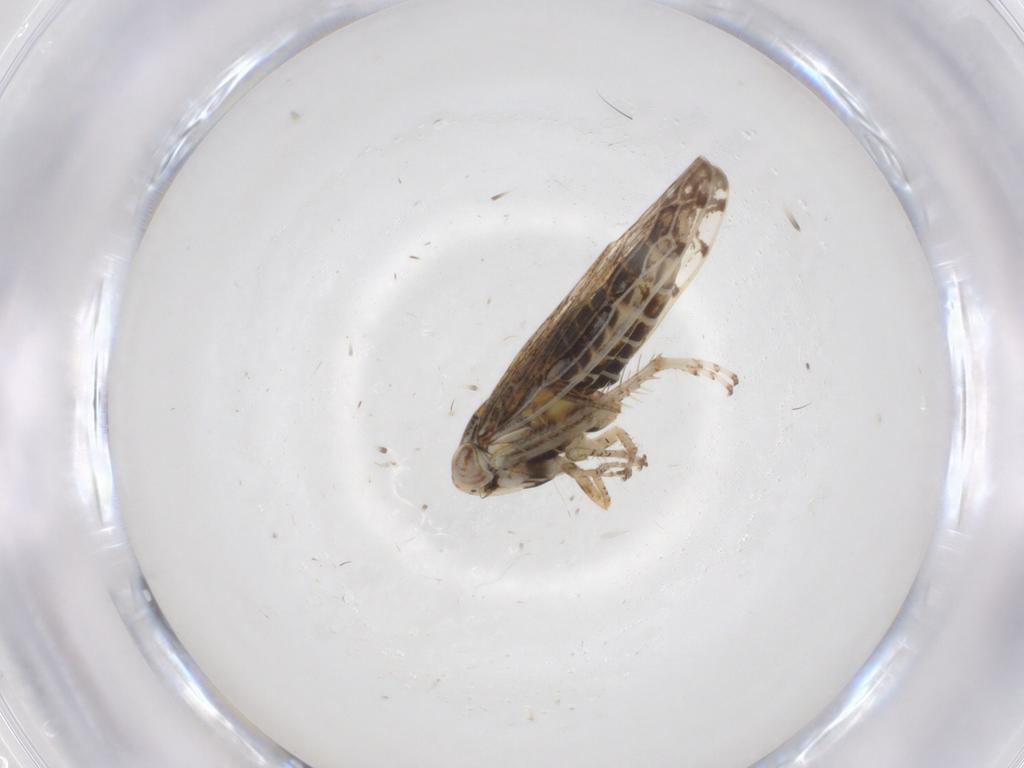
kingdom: Animalia
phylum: Arthropoda
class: Insecta
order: Hemiptera
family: Cicadellidae
